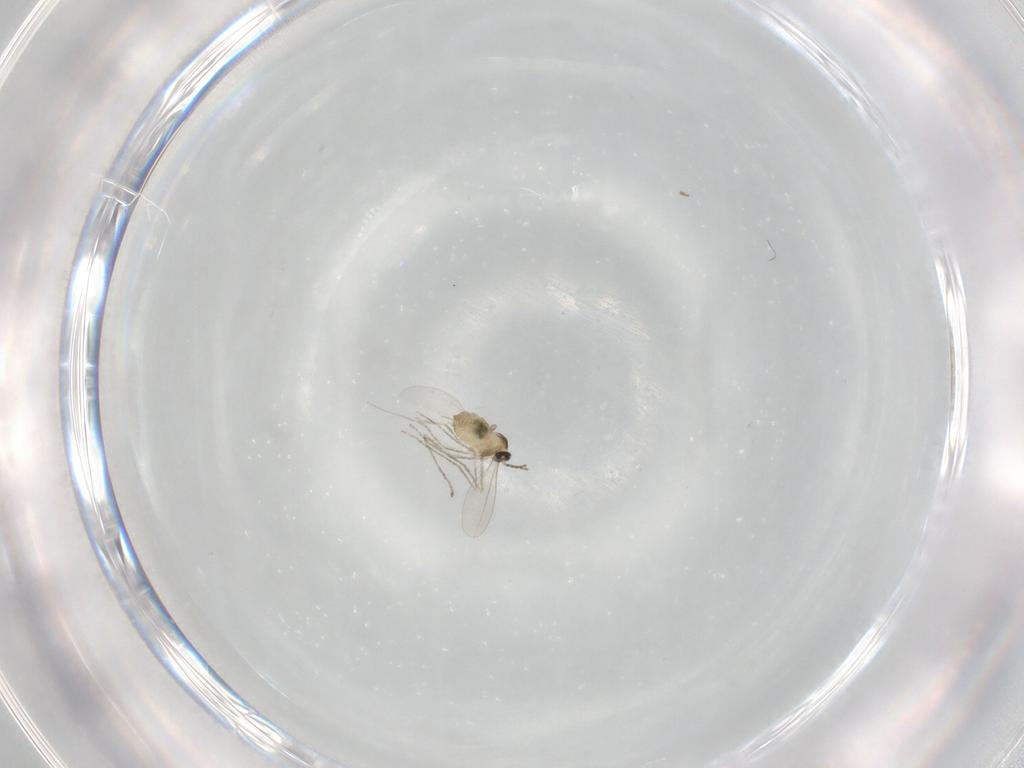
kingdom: Animalia
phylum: Arthropoda
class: Insecta
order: Diptera
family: Cecidomyiidae
